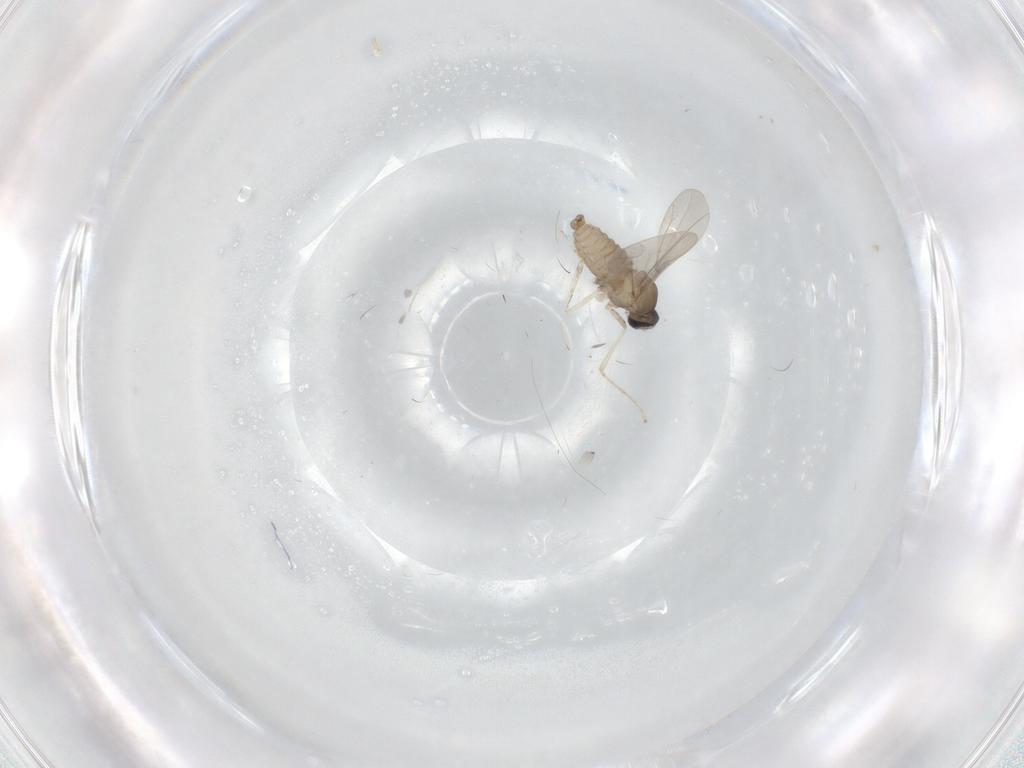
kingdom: Animalia
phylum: Arthropoda
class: Insecta
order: Diptera
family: Cecidomyiidae
